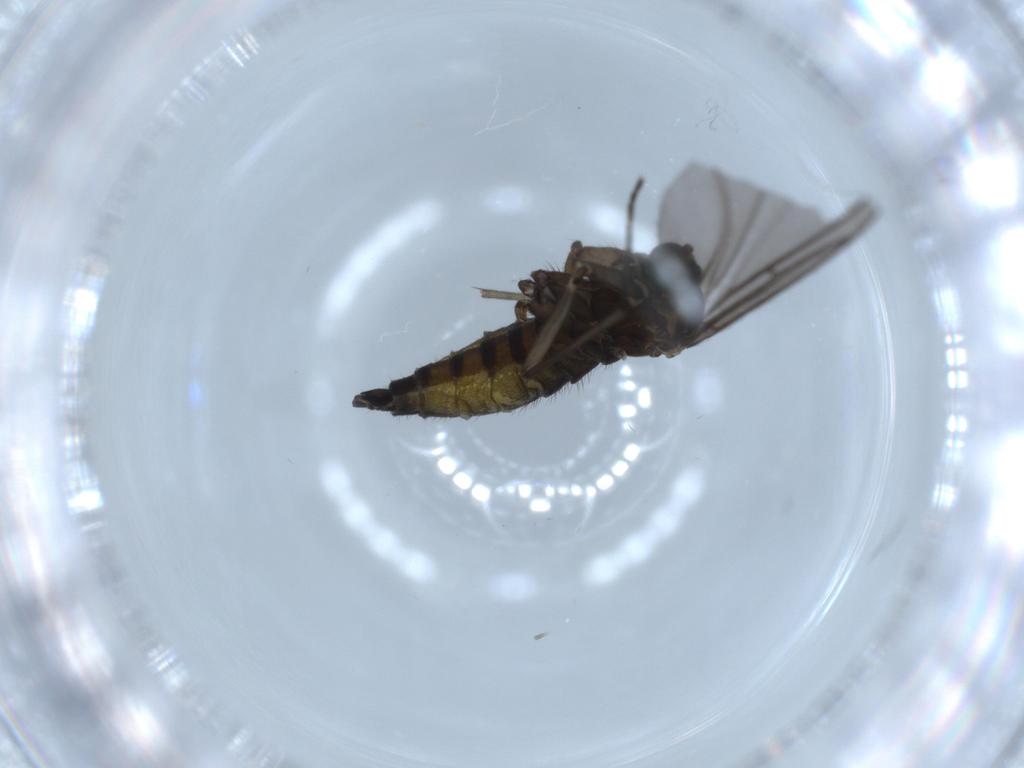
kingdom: Animalia
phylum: Arthropoda
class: Insecta
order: Diptera
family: Sciaridae
